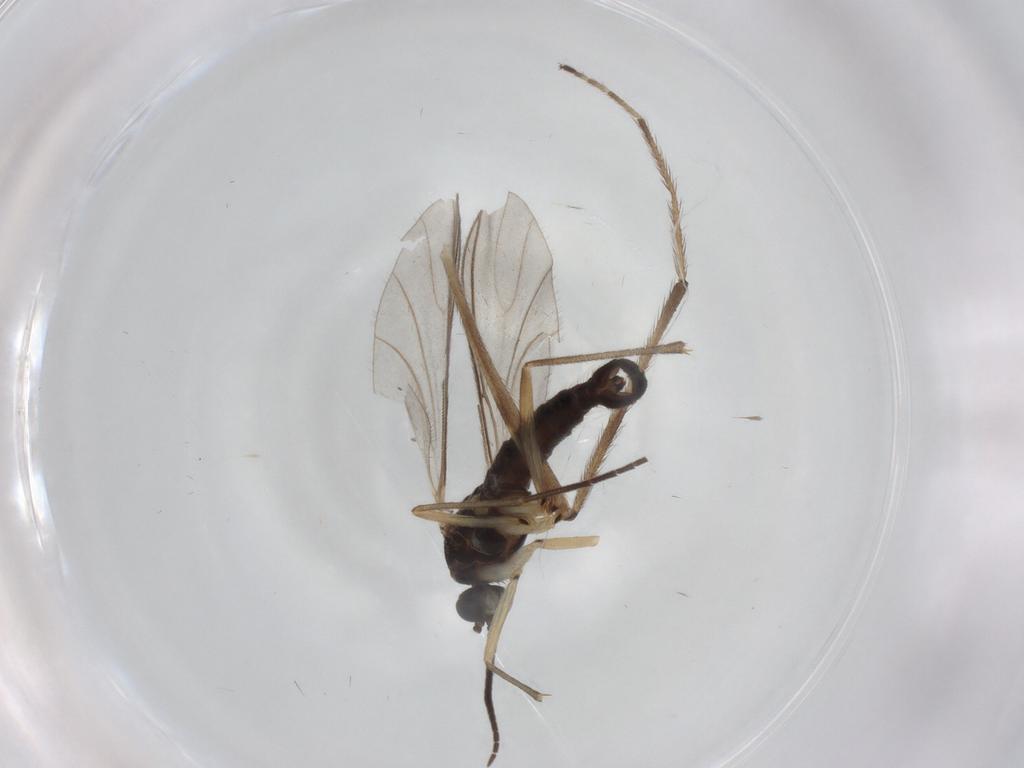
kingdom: Animalia
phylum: Arthropoda
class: Insecta
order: Diptera
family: Sciaridae
